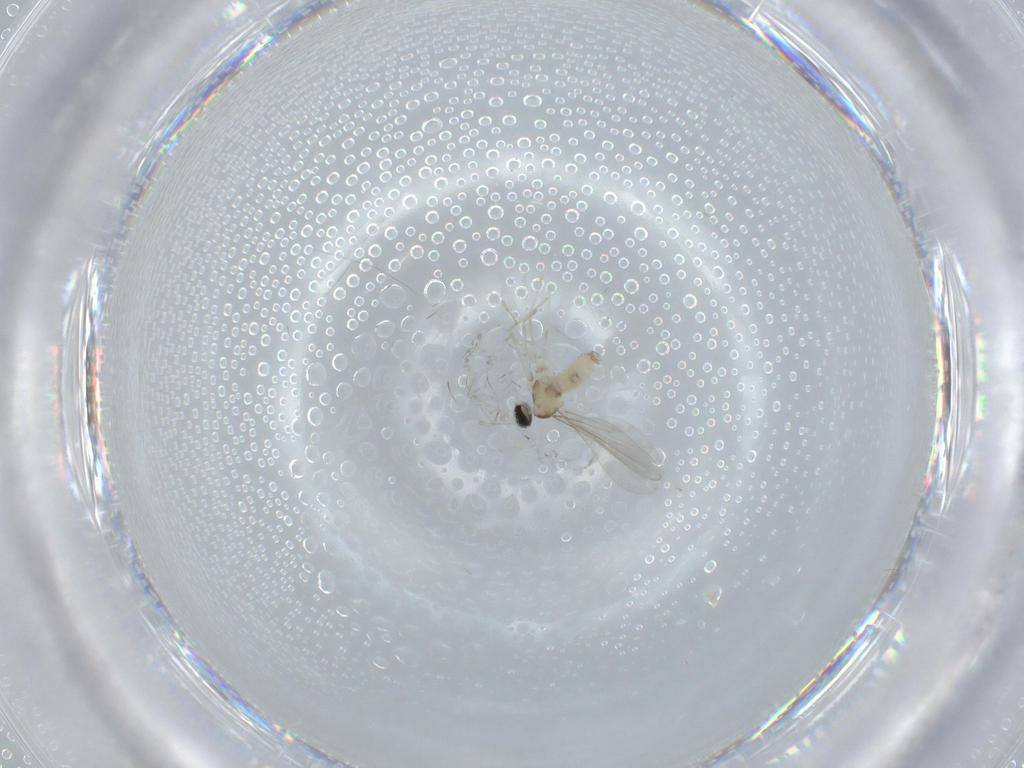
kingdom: Animalia
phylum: Arthropoda
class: Insecta
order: Diptera
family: Cecidomyiidae
